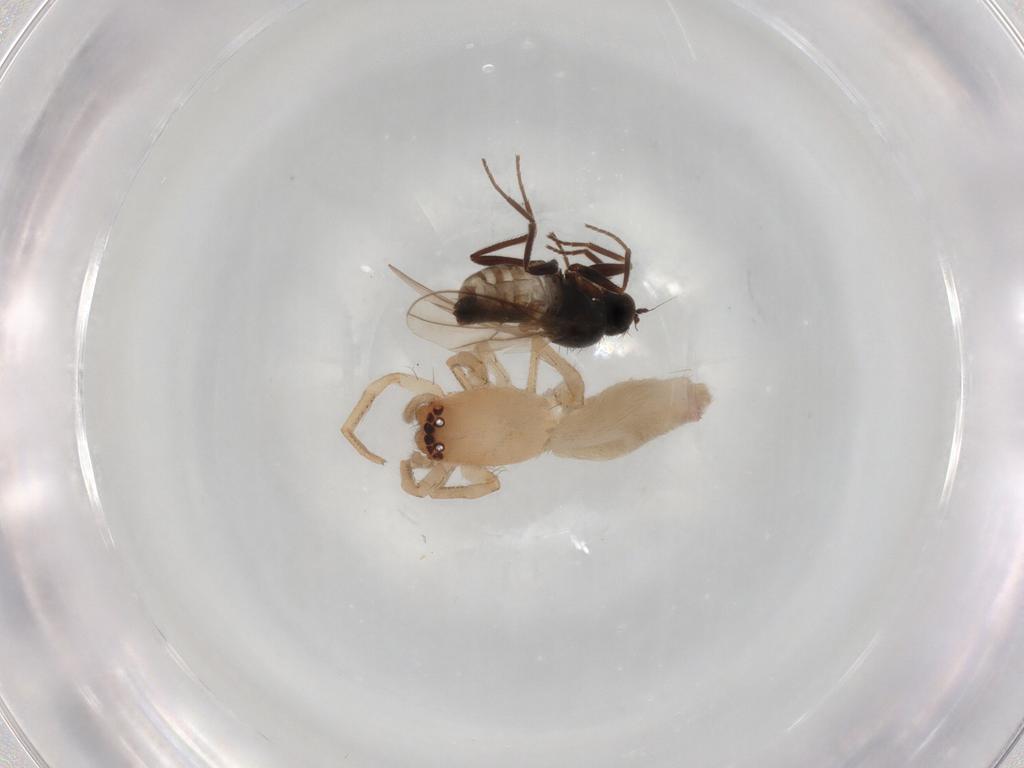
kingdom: Animalia
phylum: Arthropoda
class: Insecta
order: Diptera
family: Hybotidae
